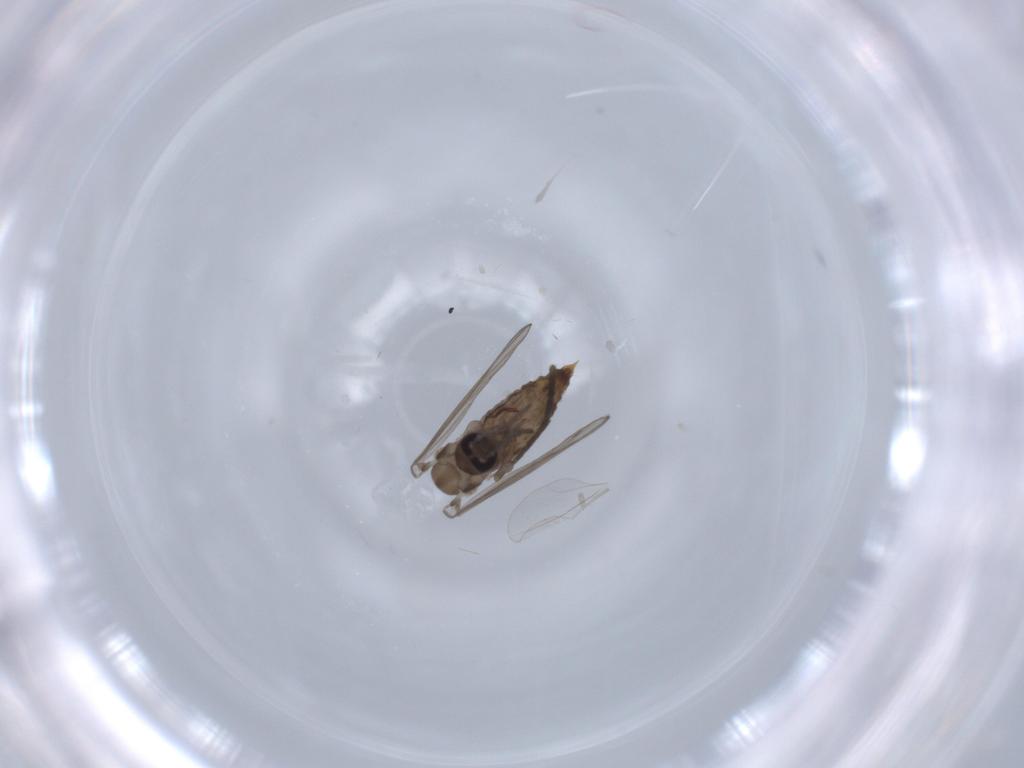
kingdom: Animalia
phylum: Arthropoda
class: Insecta
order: Diptera
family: Psychodidae
